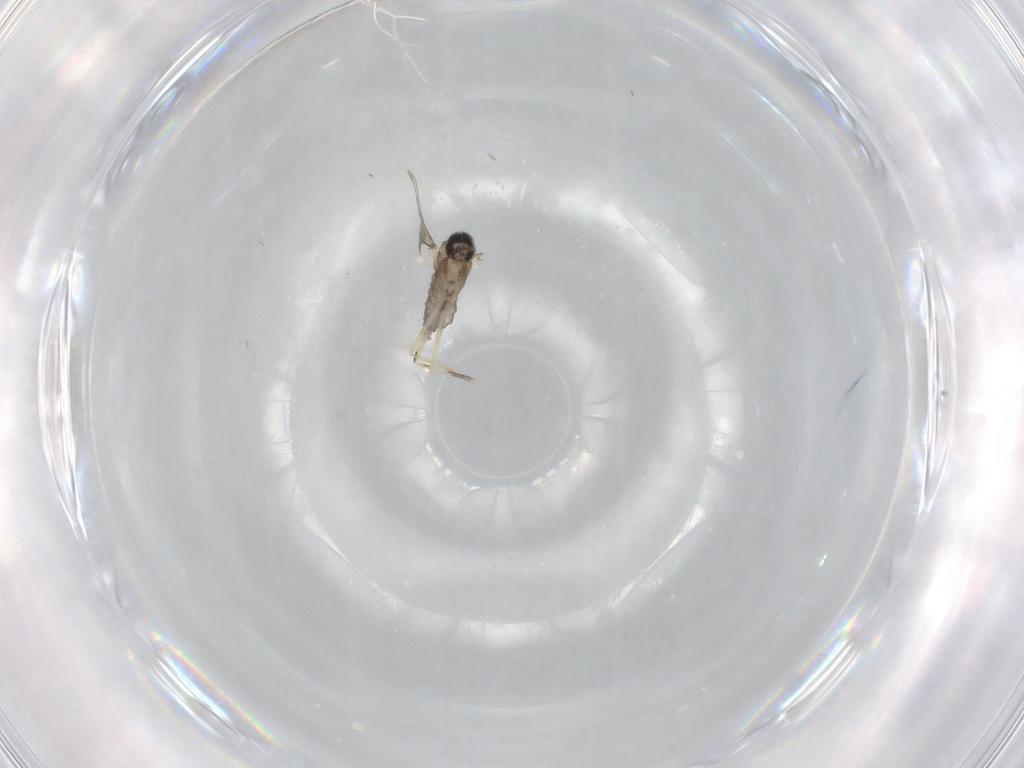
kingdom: Animalia
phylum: Arthropoda
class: Insecta
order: Diptera
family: Cecidomyiidae
